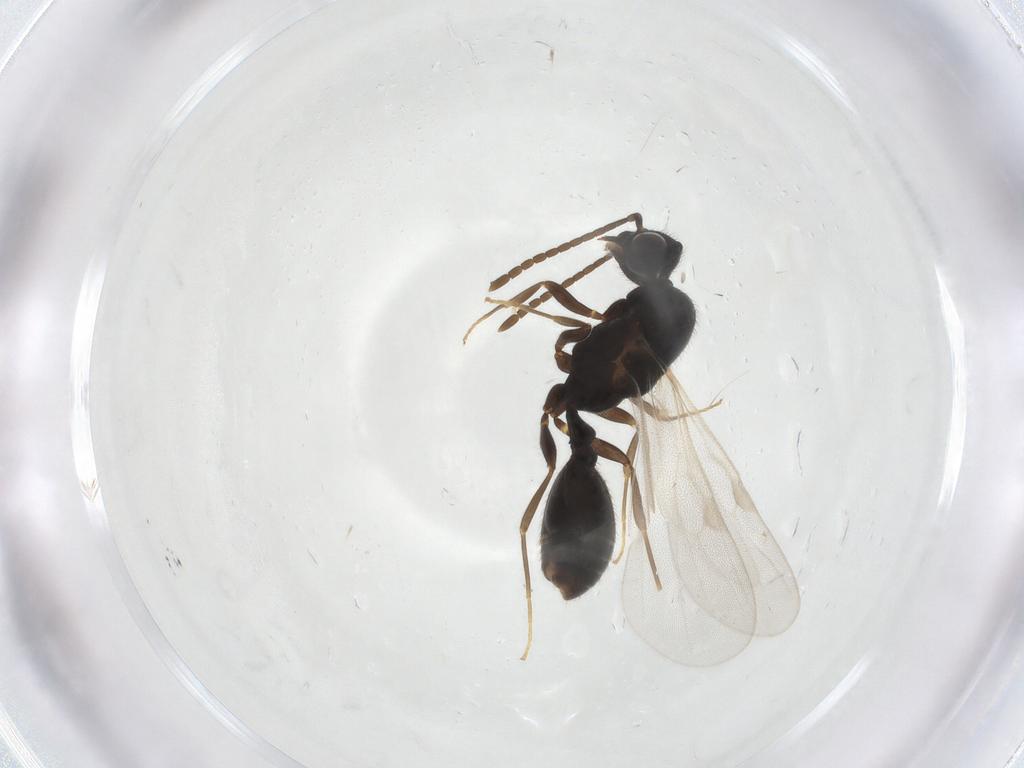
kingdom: Animalia
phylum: Arthropoda
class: Insecta
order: Hymenoptera
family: Formicidae
